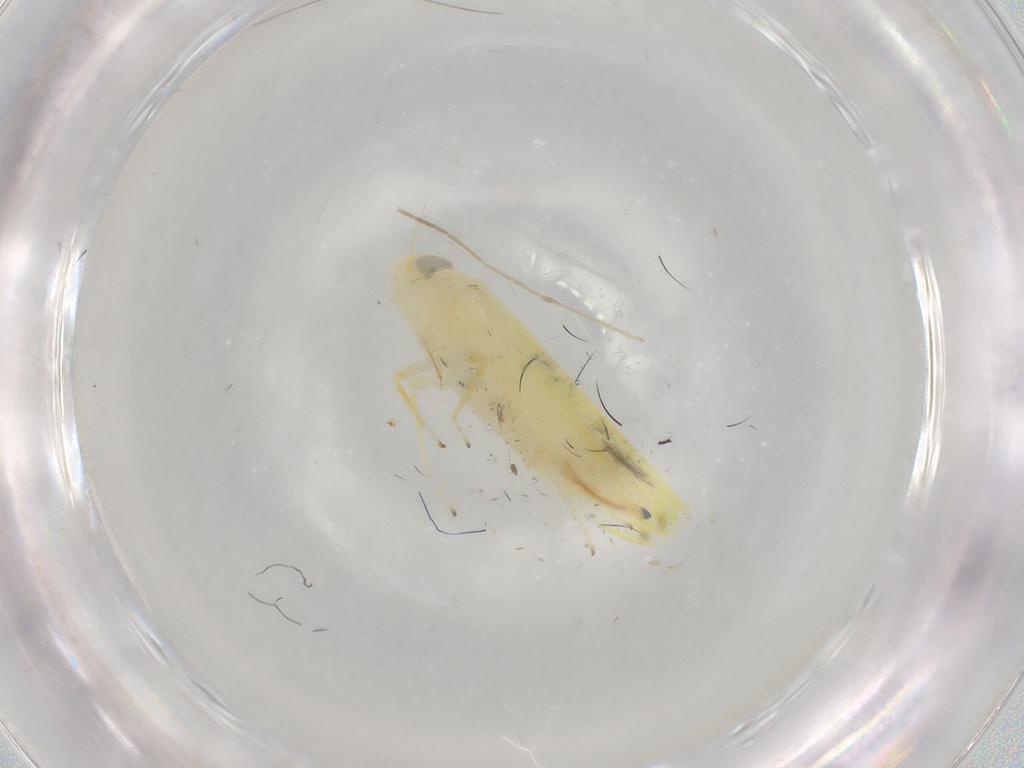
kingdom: Animalia
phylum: Arthropoda
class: Insecta
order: Hemiptera
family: Cicadellidae
